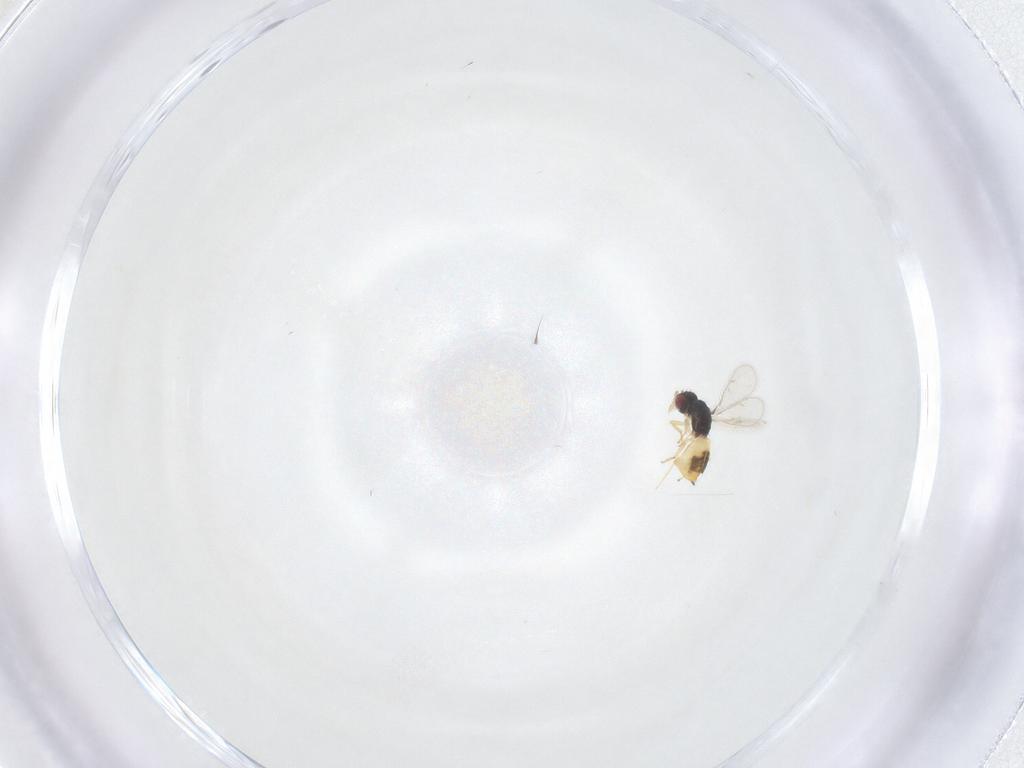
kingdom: Animalia
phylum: Arthropoda
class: Insecta
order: Hymenoptera
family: Eulophidae
